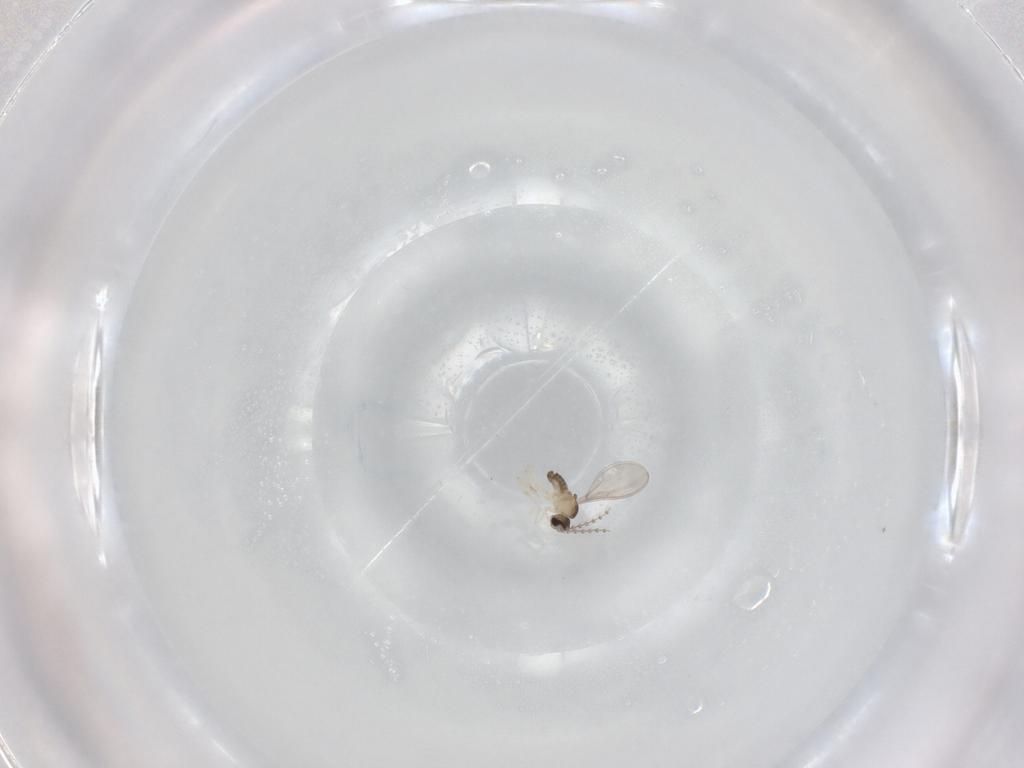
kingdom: Animalia
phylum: Arthropoda
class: Insecta
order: Diptera
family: Cecidomyiidae
